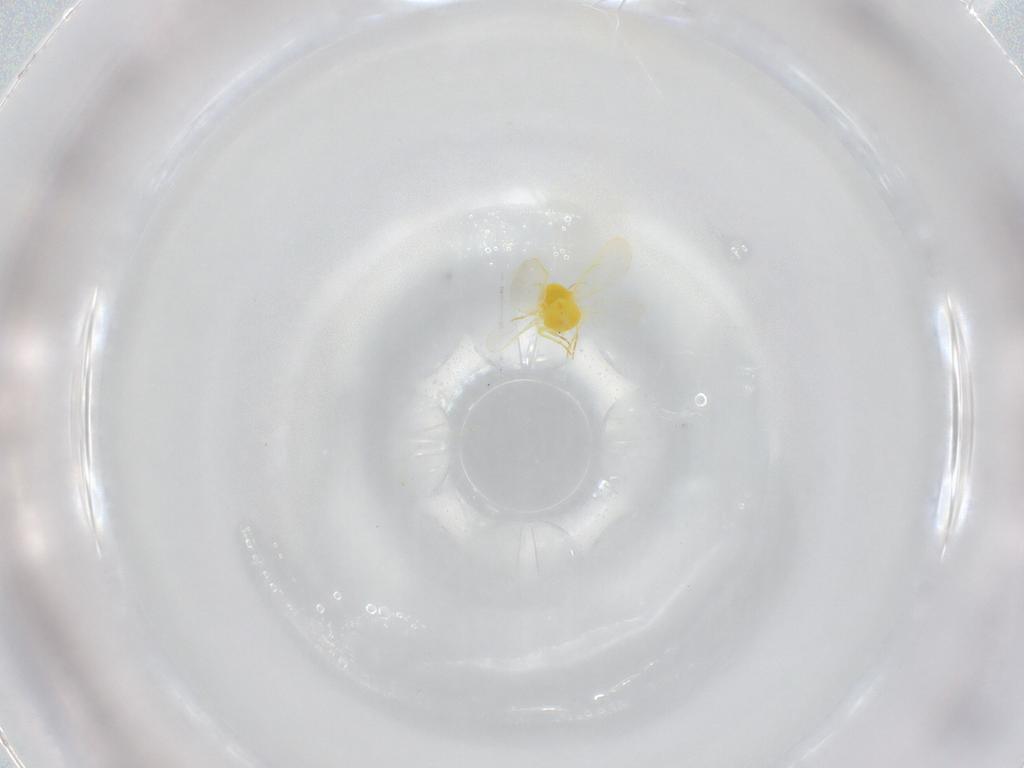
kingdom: Animalia
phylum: Arthropoda
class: Insecta
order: Hemiptera
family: Aleyrodidae
